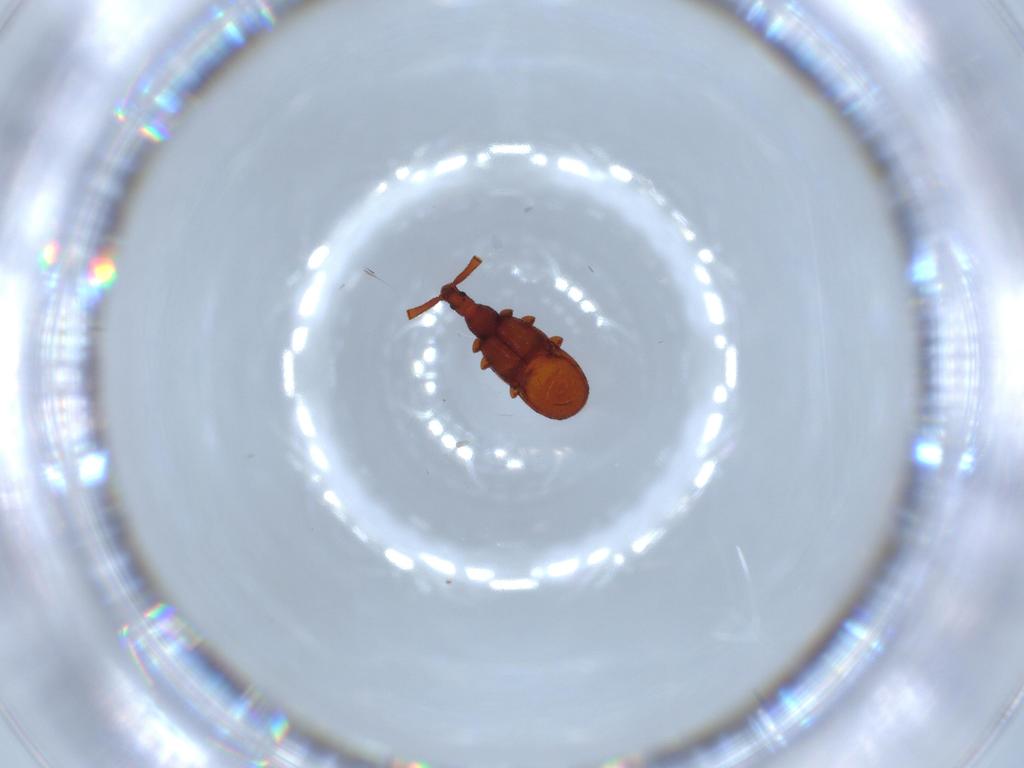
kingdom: Animalia
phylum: Arthropoda
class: Insecta
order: Coleoptera
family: Staphylinidae
